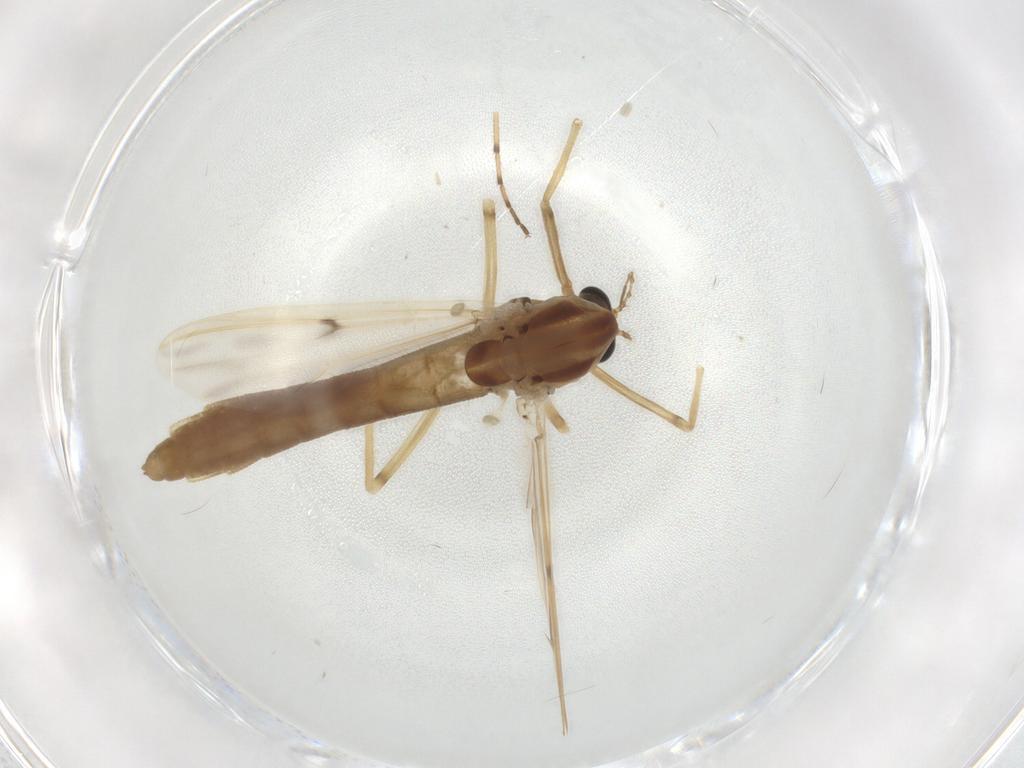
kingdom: Animalia
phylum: Arthropoda
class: Insecta
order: Diptera
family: Chironomidae
